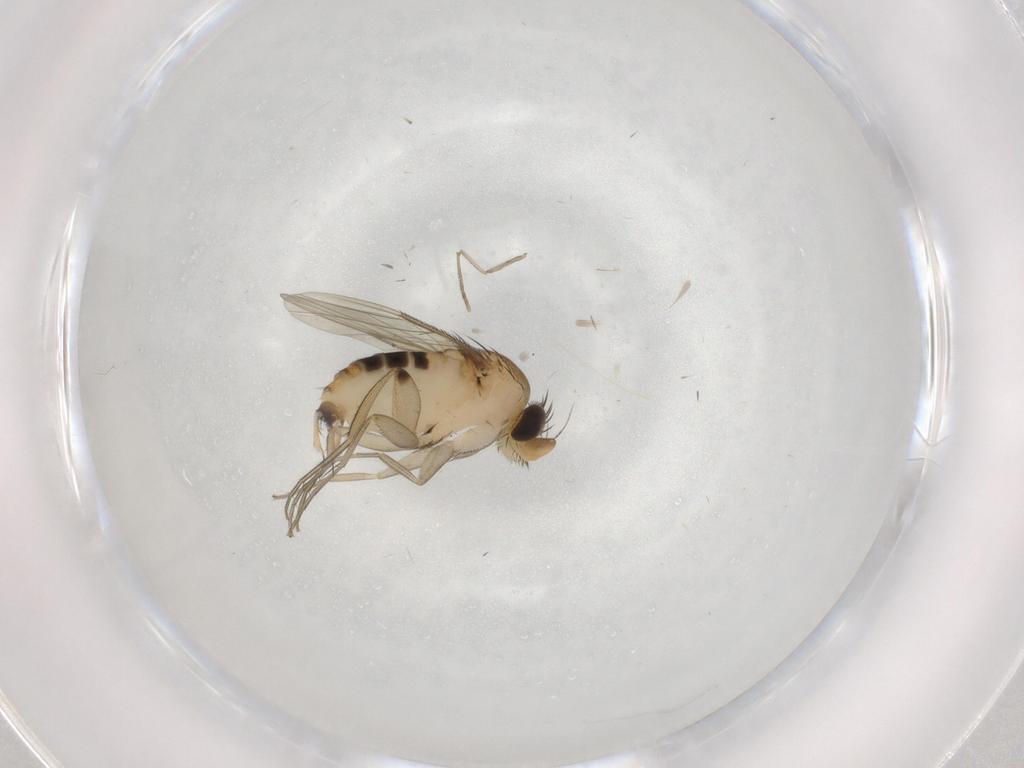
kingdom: Animalia
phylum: Arthropoda
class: Insecta
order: Diptera
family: Phoridae
